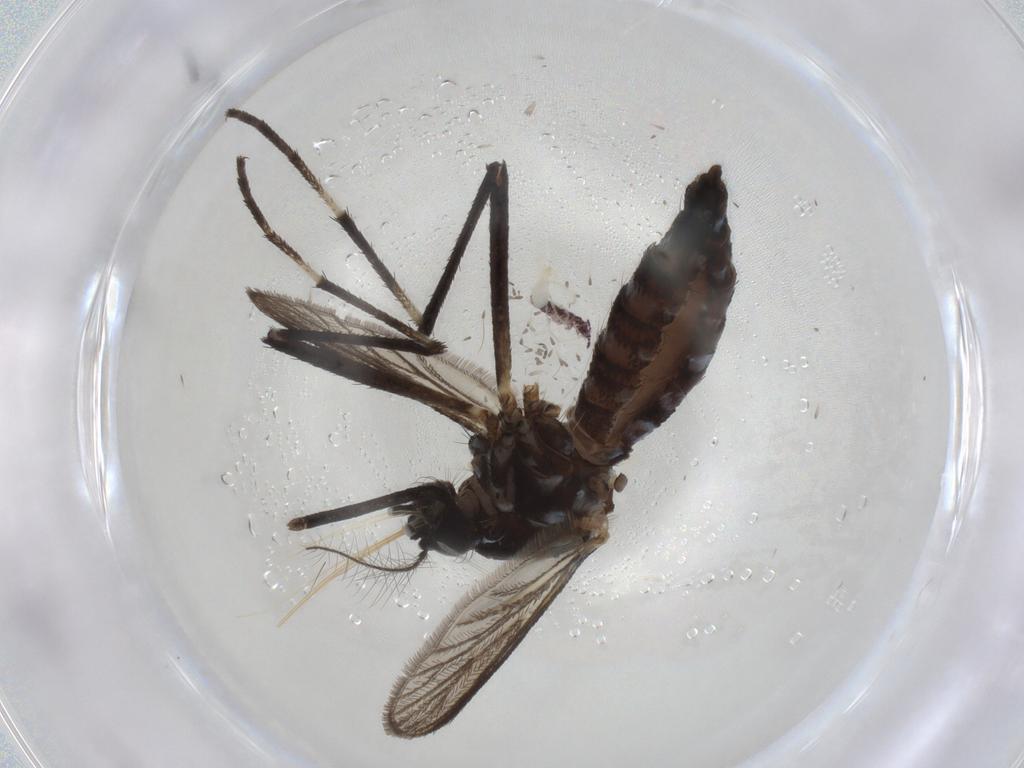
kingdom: Animalia
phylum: Arthropoda
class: Insecta
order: Diptera
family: Culicidae
